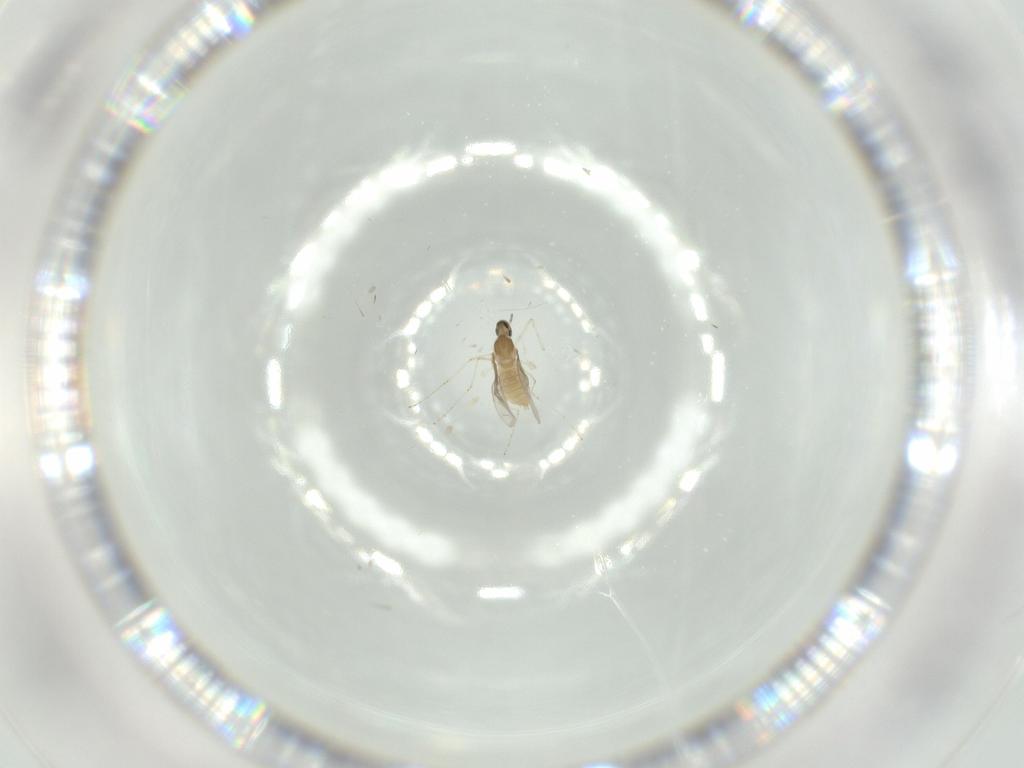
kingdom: Animalia
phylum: Arthropoda
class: Insecta
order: Diptera
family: Cecidomyiidae
